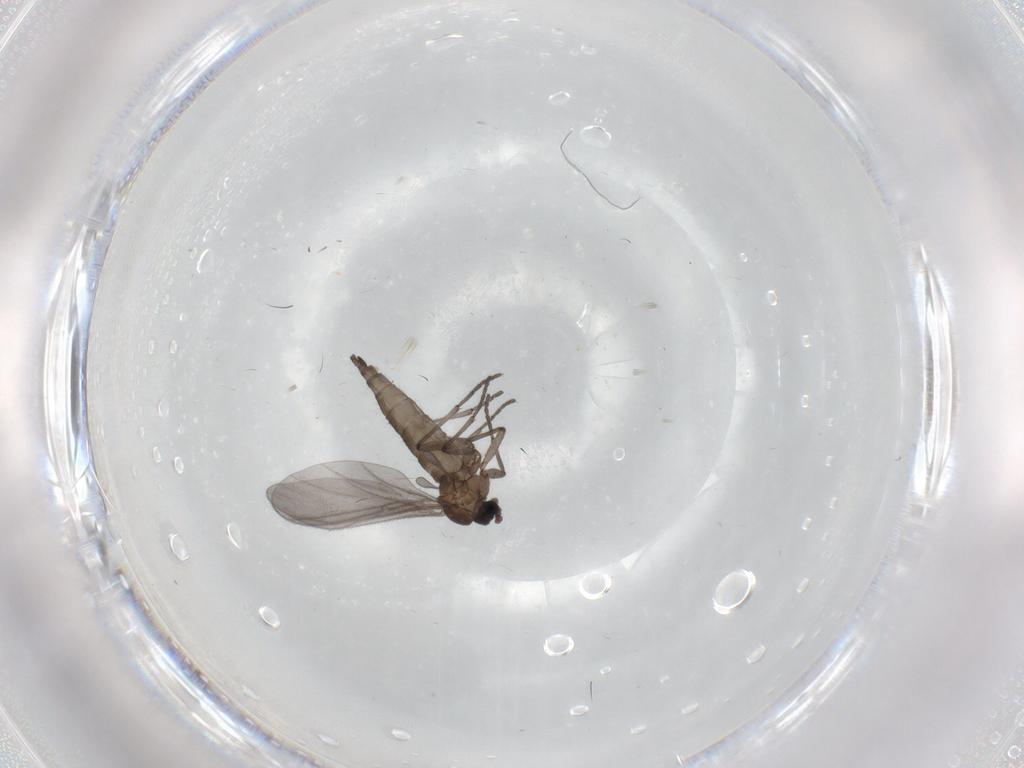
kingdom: Animalia
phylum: Arthropoda
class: Insecta
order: Diptera
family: Sciaridae
